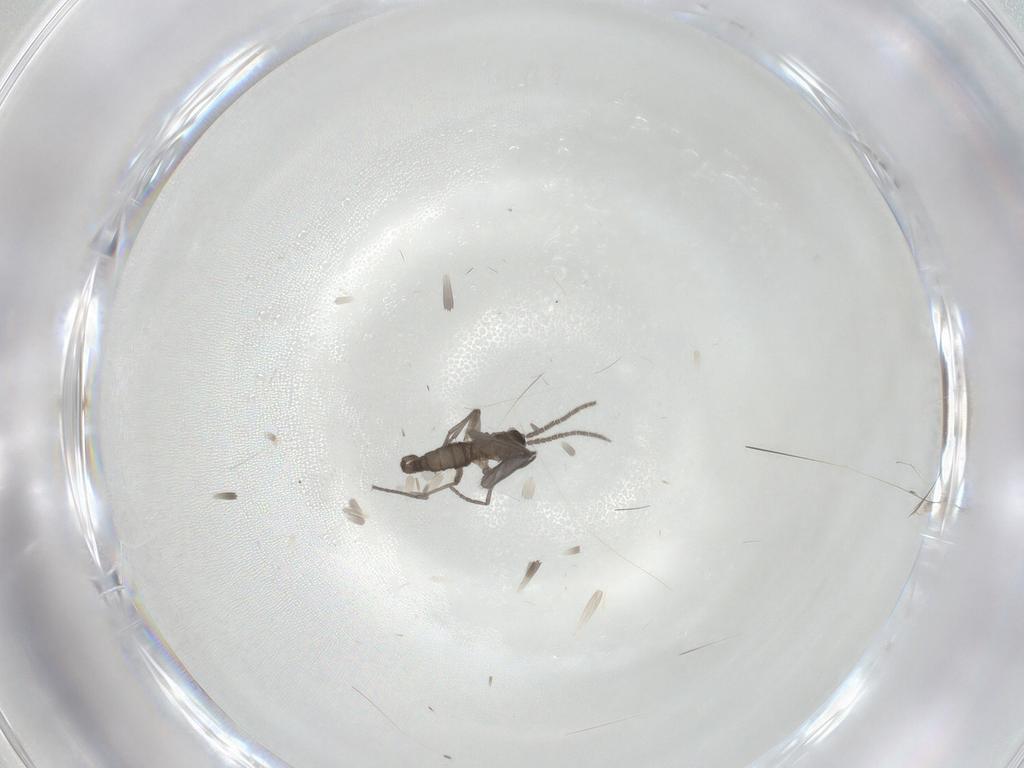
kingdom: Animalia
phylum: Arthropoda
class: Insecta
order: Diptera
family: Sciaridae
